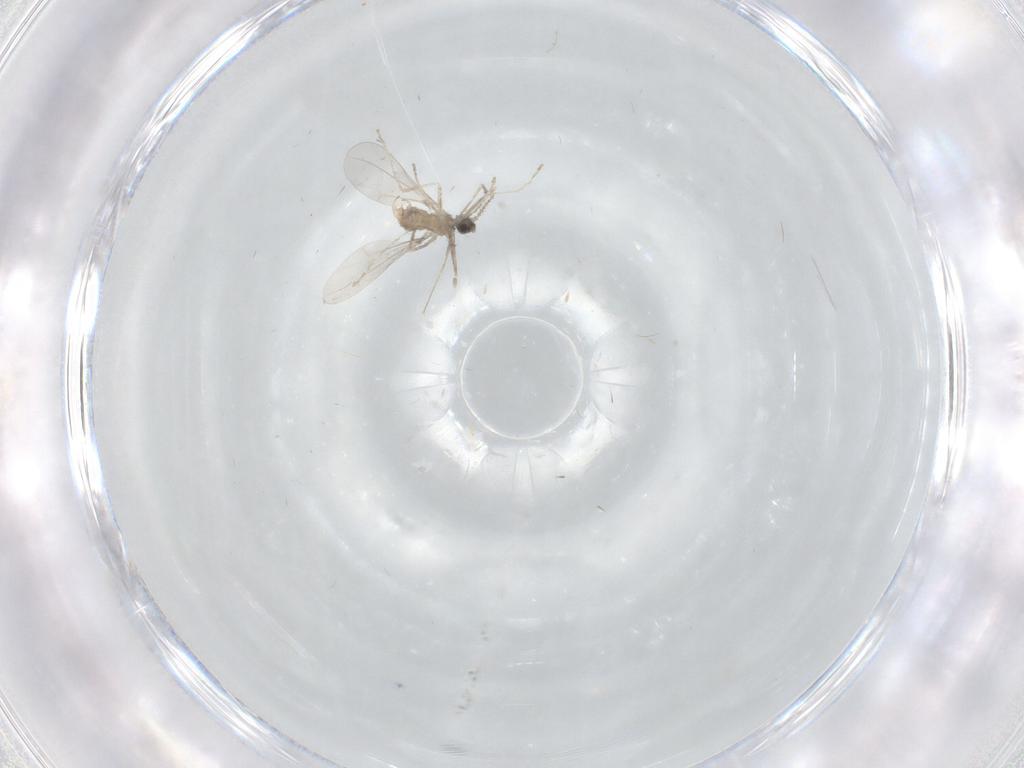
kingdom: Animalia
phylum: Arthropoda
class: Insecta
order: Diptera
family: Cecidomyiidae
